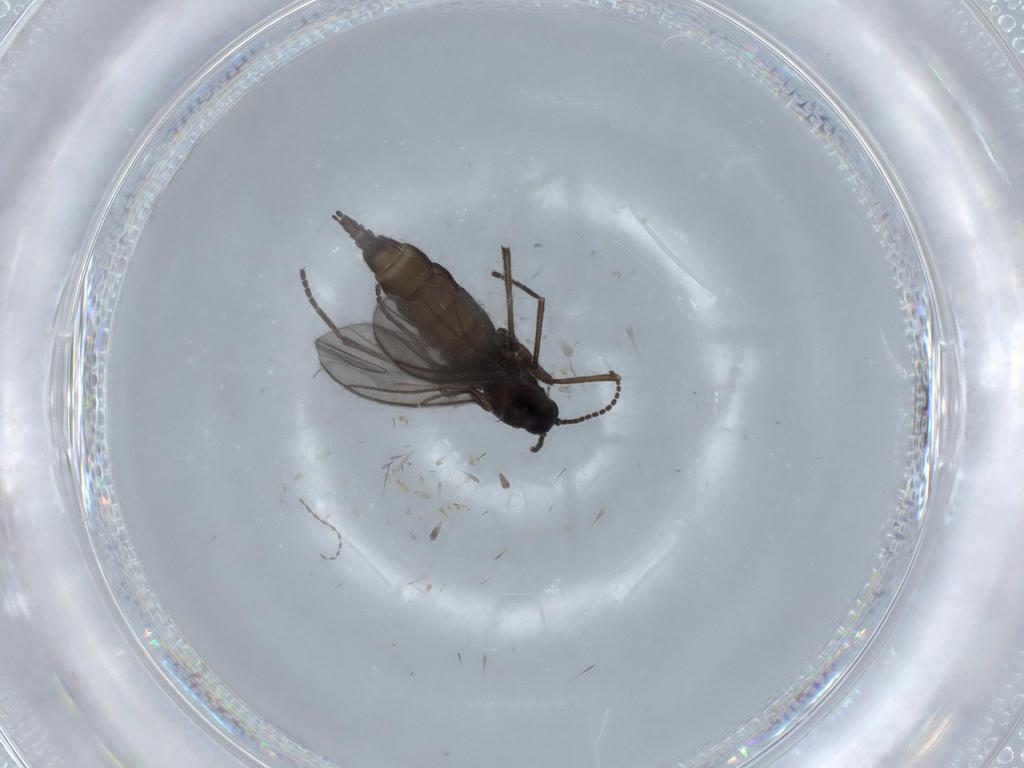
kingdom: Animalia
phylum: Arthropoda
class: Insecta
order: Diptera
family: Sciaridae
